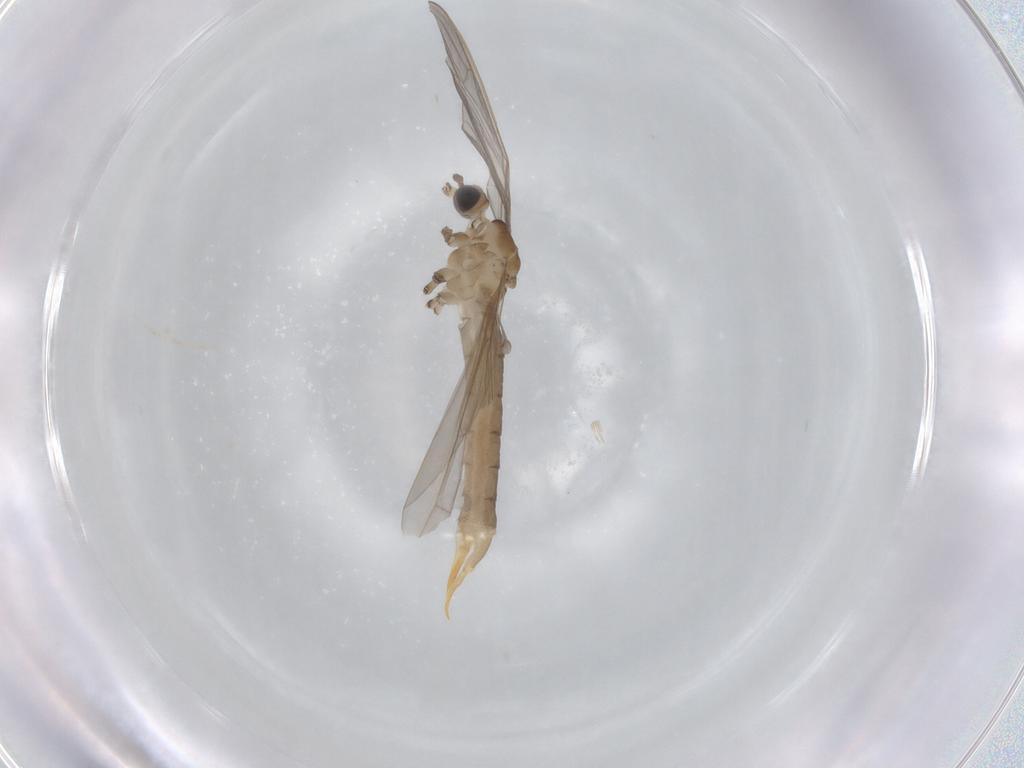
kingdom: Animalia
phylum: Arthropoda
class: Insecta
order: Diptera
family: Limoniidae
